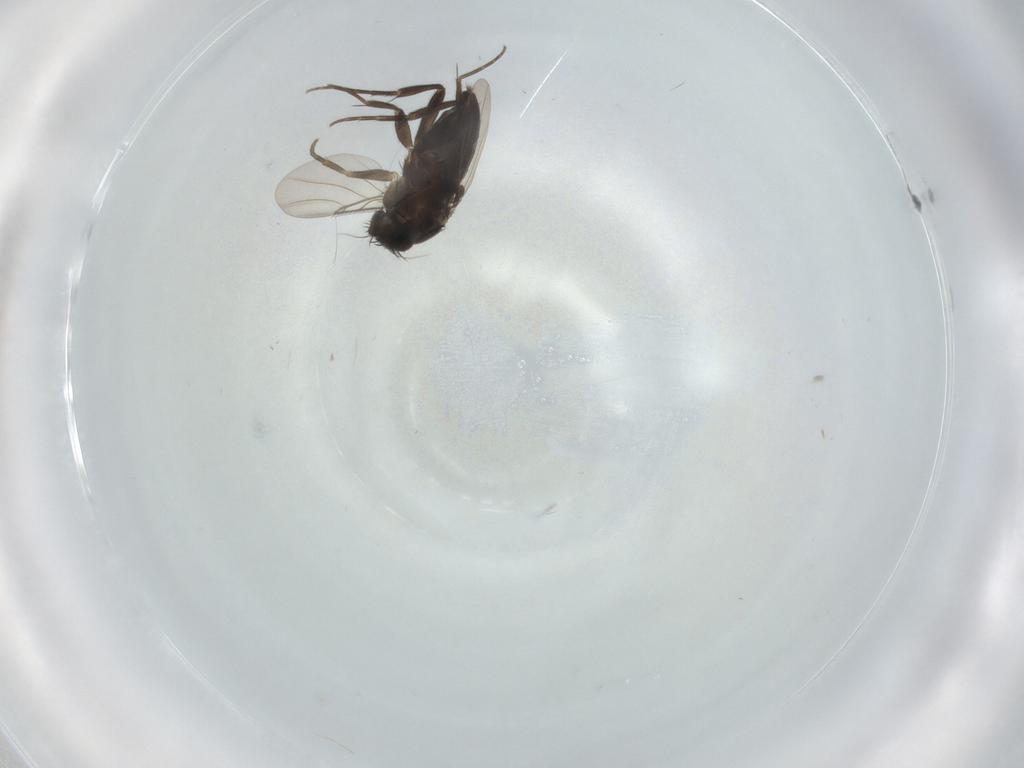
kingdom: Animalia
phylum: Arthropoda
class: Insecta
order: Diptera
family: Phoridae
